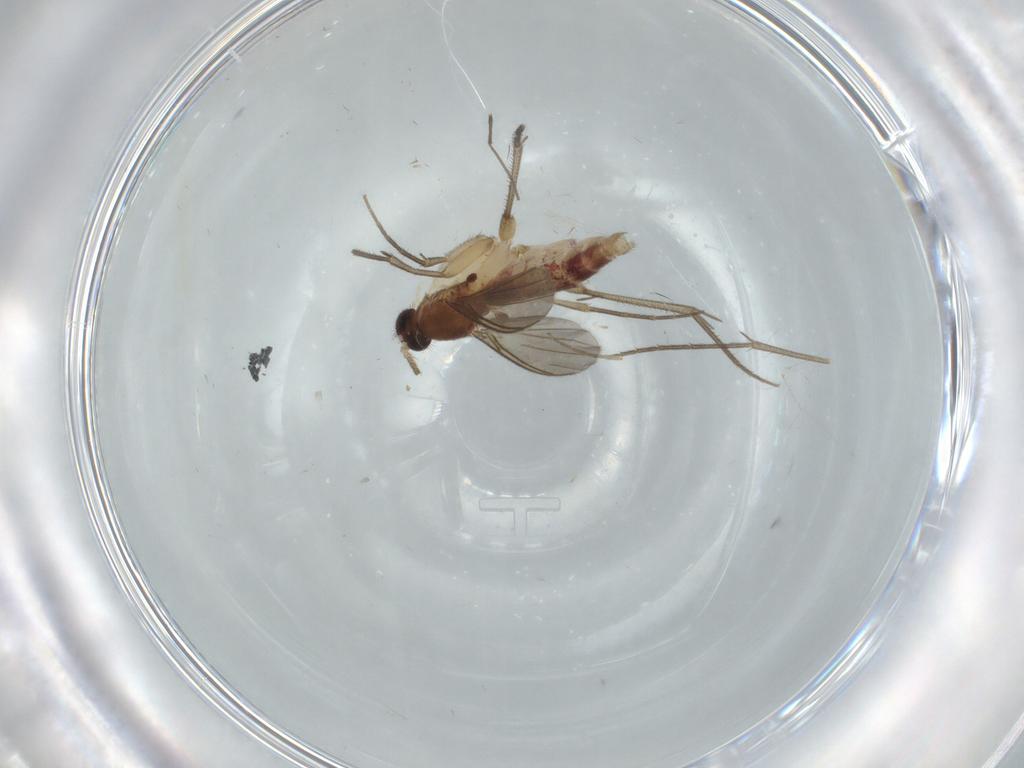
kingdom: Animalia
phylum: Arthropoda
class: Insecta
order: Diptera
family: Mycetophilidae
